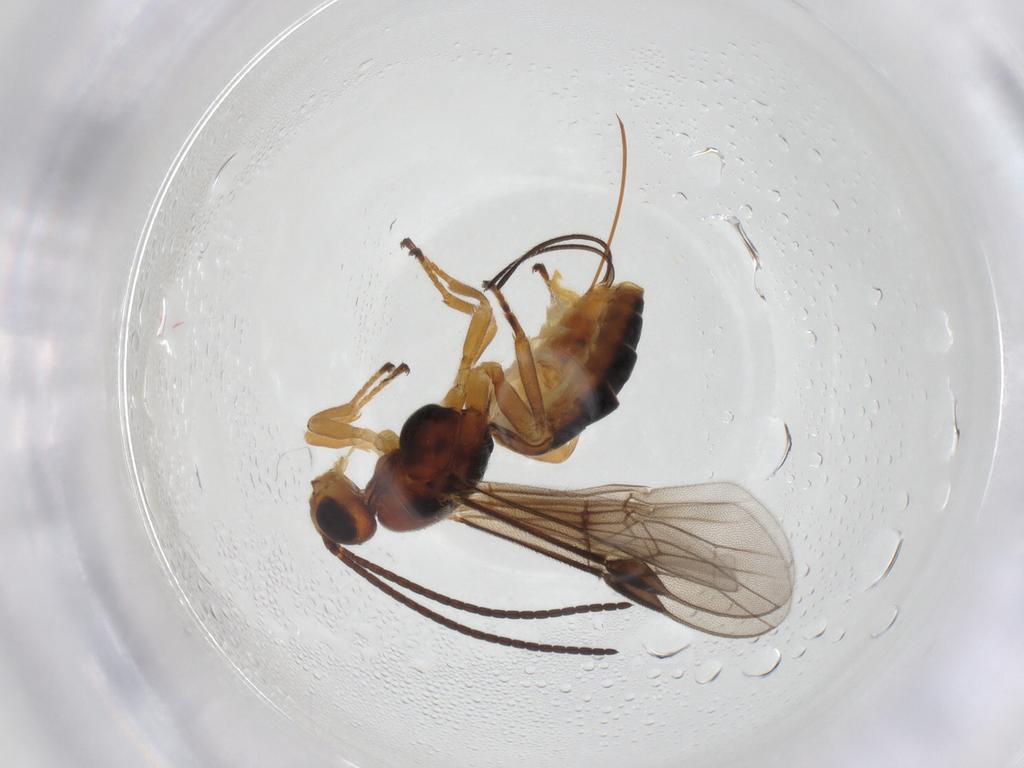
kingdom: Animalia
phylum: Arthropoda
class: Insecta
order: Hymenoptera
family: Braconidae
